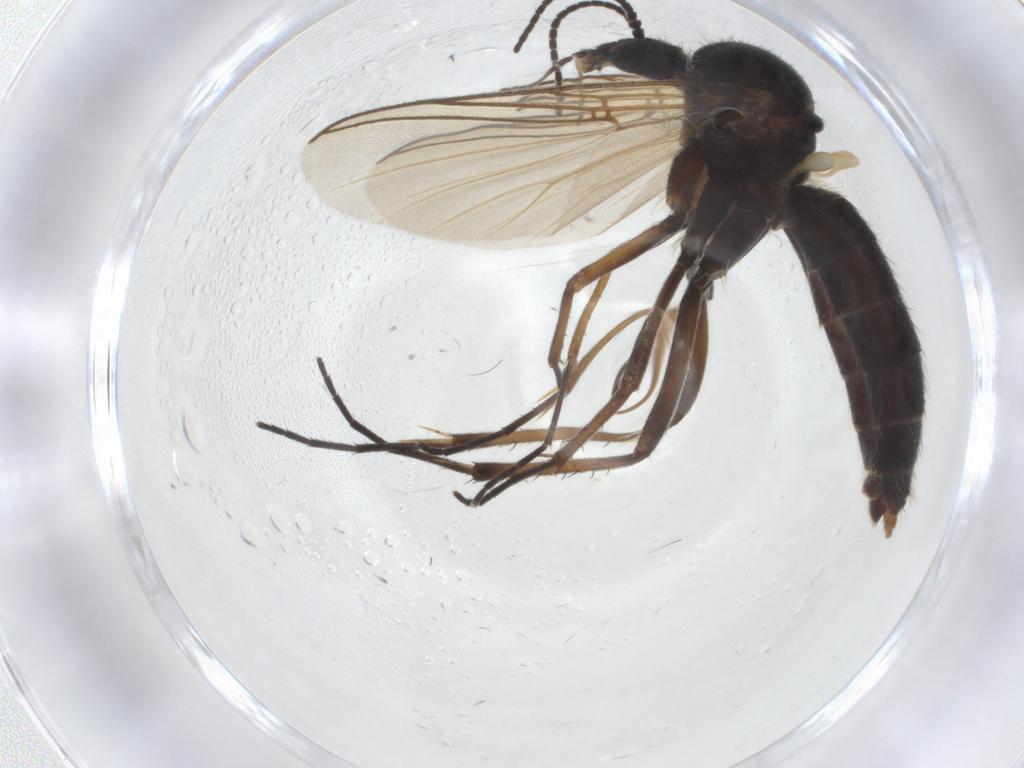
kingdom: Animalia
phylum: Arthropoda
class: Insecta
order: Diptera
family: Mycetophilidae
